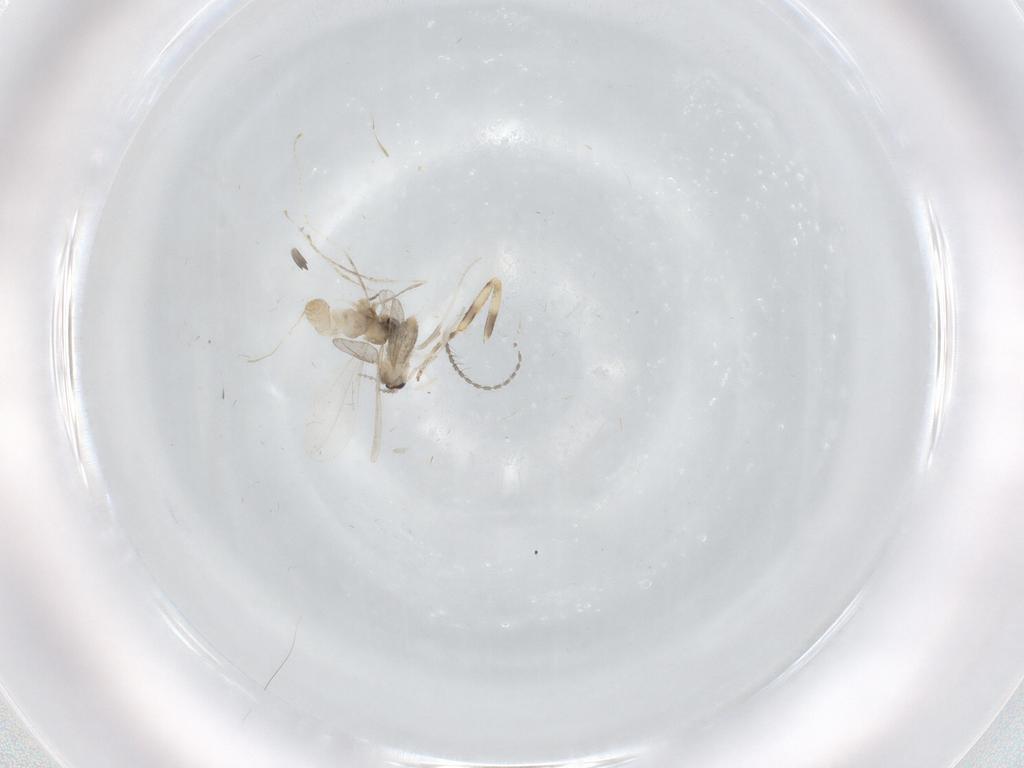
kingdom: Animalia
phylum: Arthropoda
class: Insecta
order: Diptera
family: Cecidomyiidae
